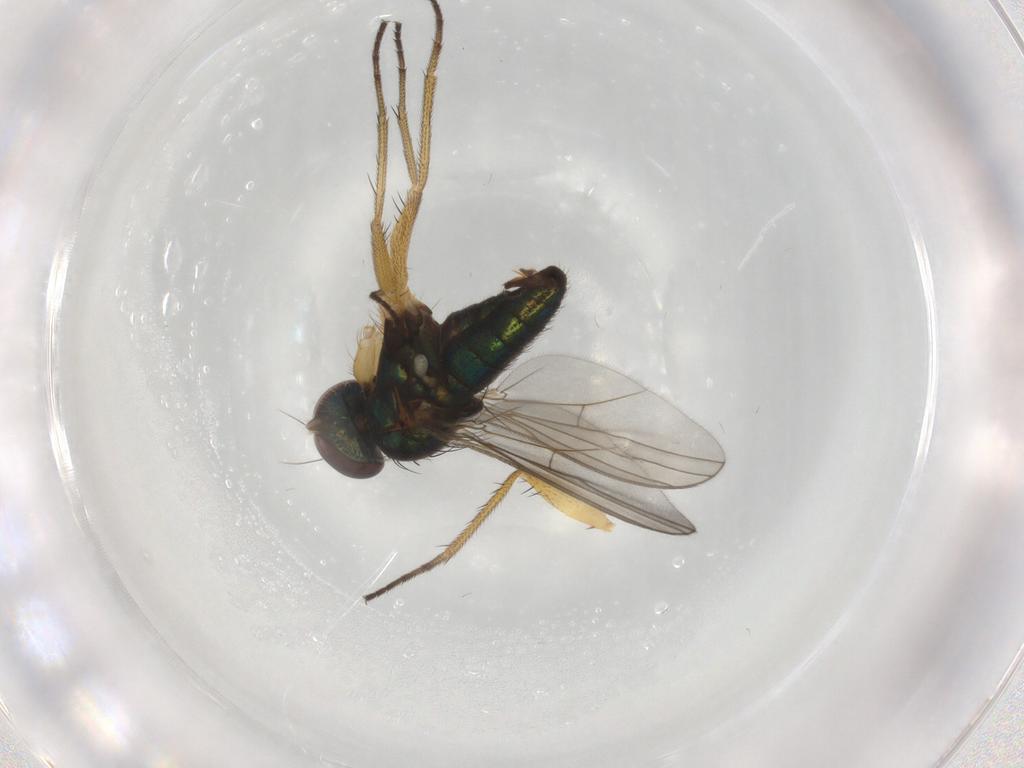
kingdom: Animalia
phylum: Arthropoda
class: Insecta
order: Diptera
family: Dolichopodidae
